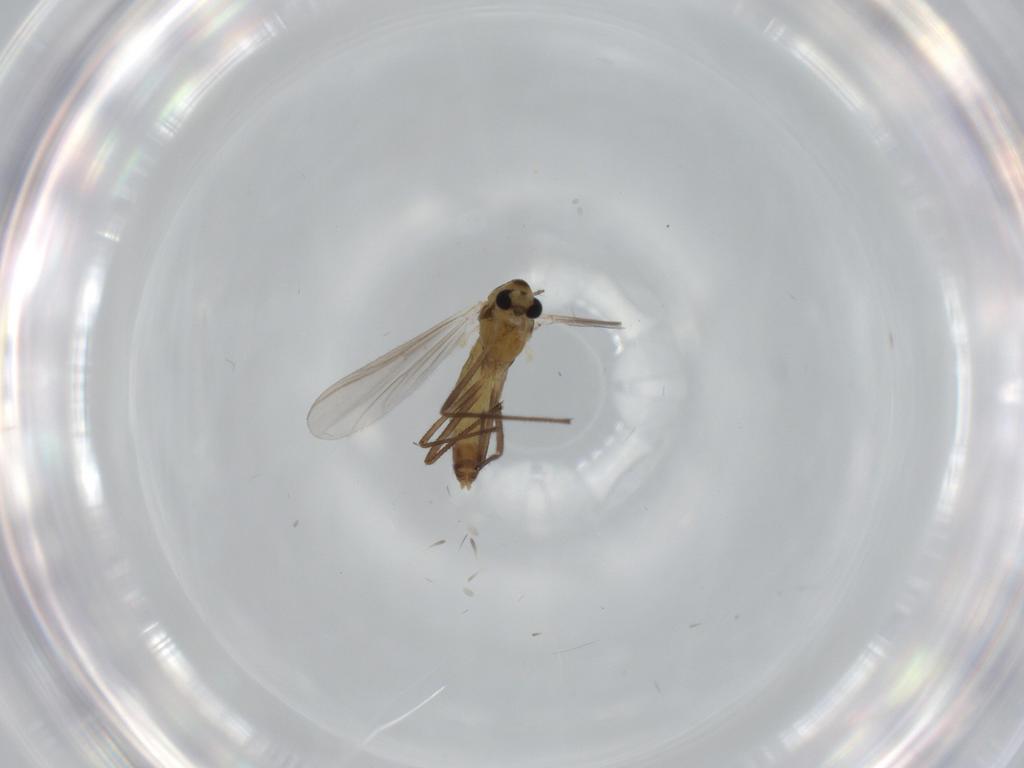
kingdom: Animalia
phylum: Arthropoda
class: Insecta
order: Diptera
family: Chironomidae
